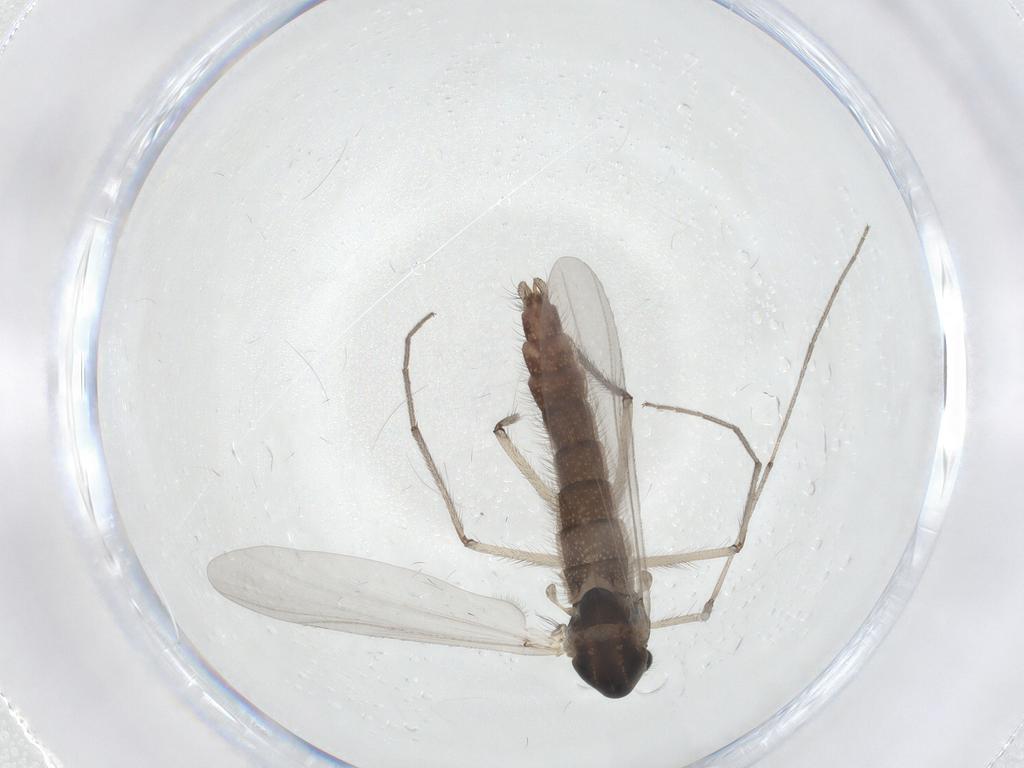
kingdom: Animalia
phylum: Arthropoda
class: Insecta
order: Diptera
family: Chironomidae
